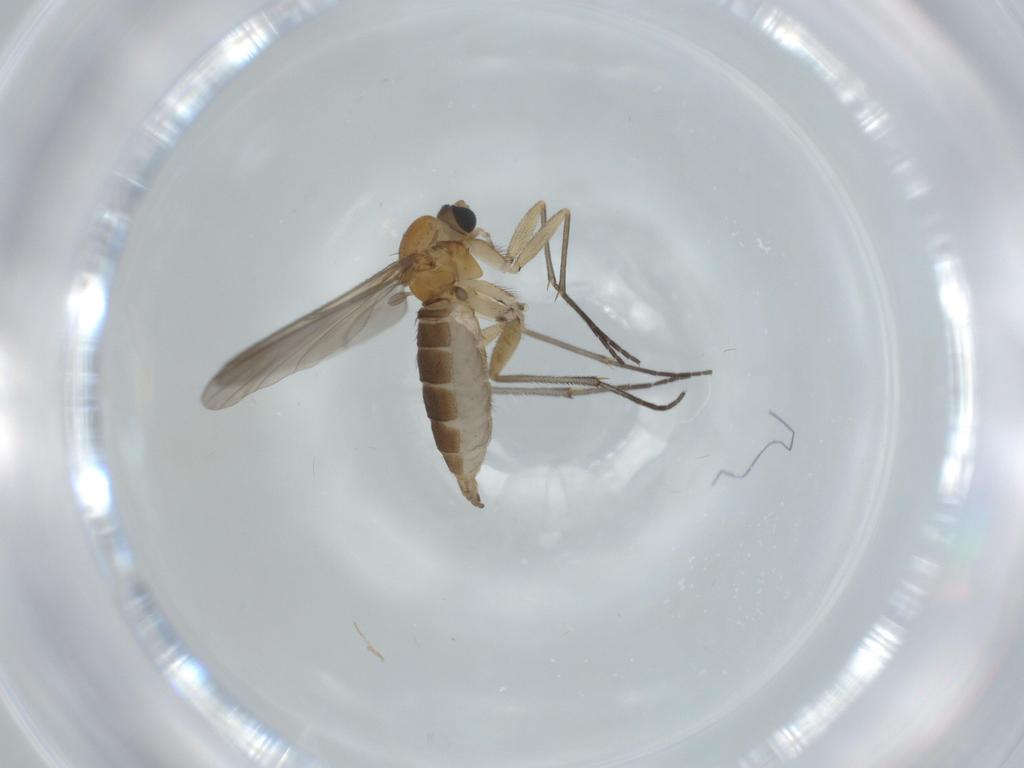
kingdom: Animalia
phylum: Arthropoda
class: Insecta
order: Diptera
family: Sciaridae
